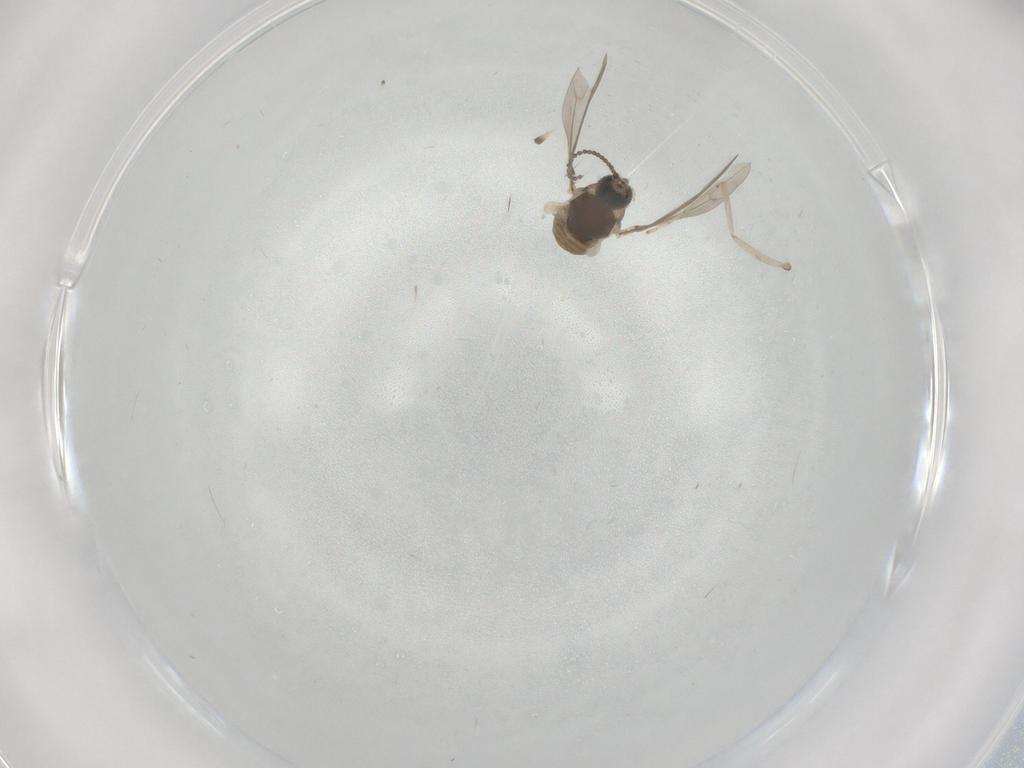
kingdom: Animalia
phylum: Arthropoda
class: Insecta
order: Diptera
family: Cecidomyiidae
